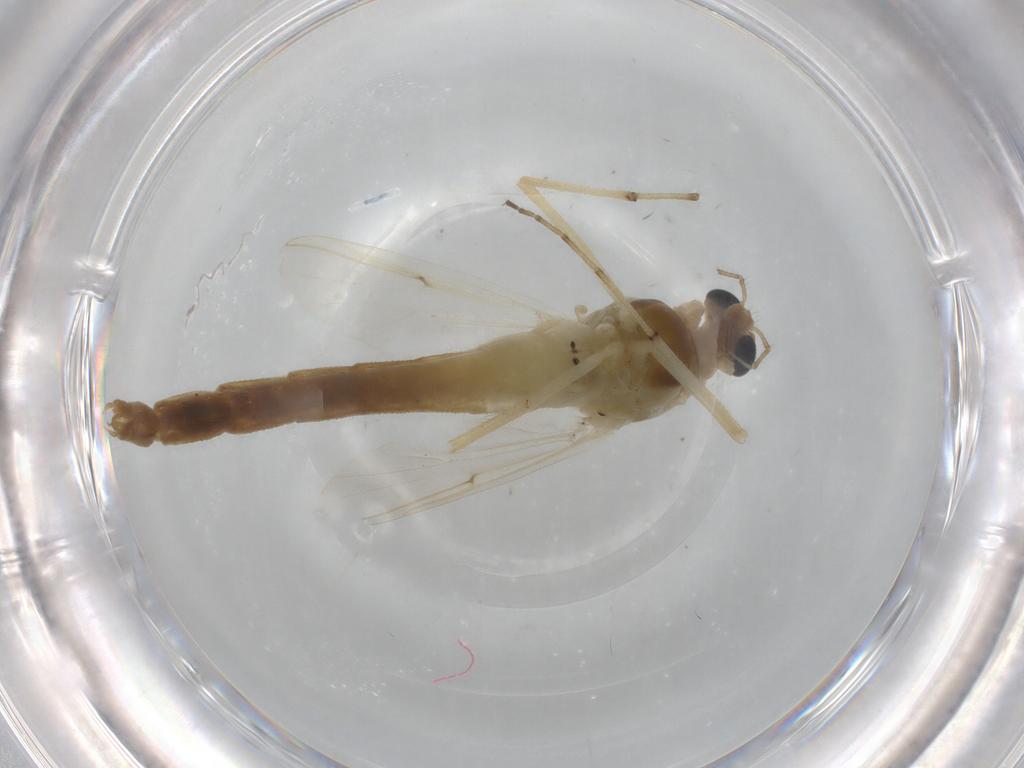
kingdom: Animalia
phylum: Arthropoda
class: Insecta
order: Diptera
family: Chironomidae
